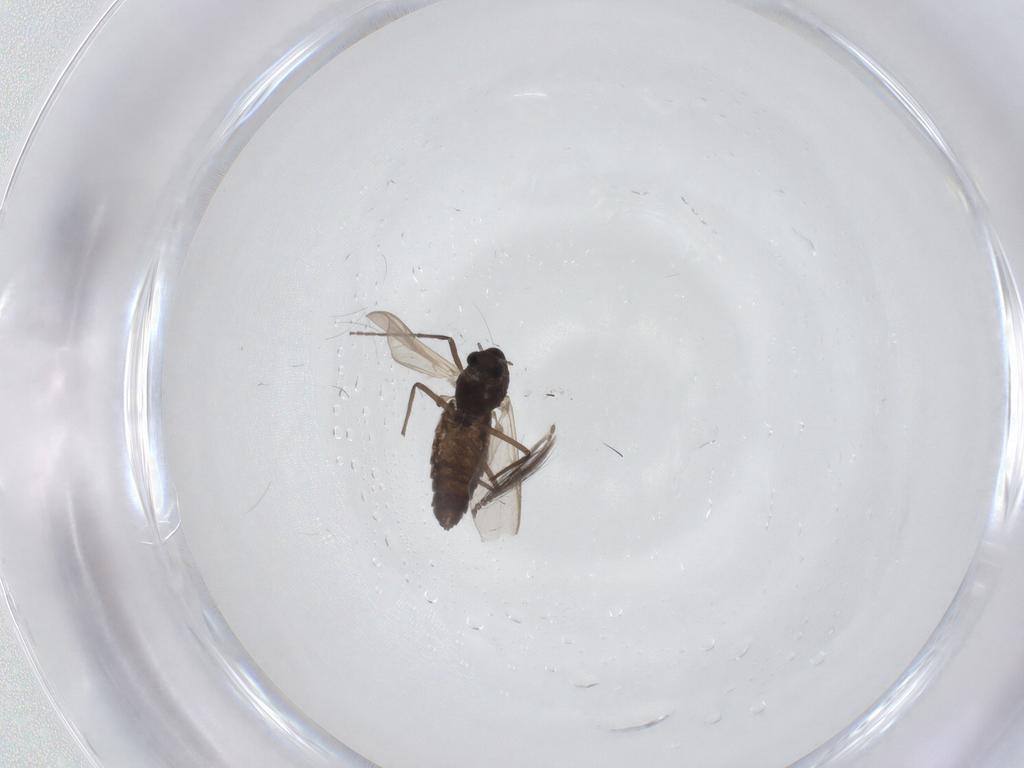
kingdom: Animalia
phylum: Arthropoda
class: Insecta
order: Diptera
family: Ceratopogonidae
